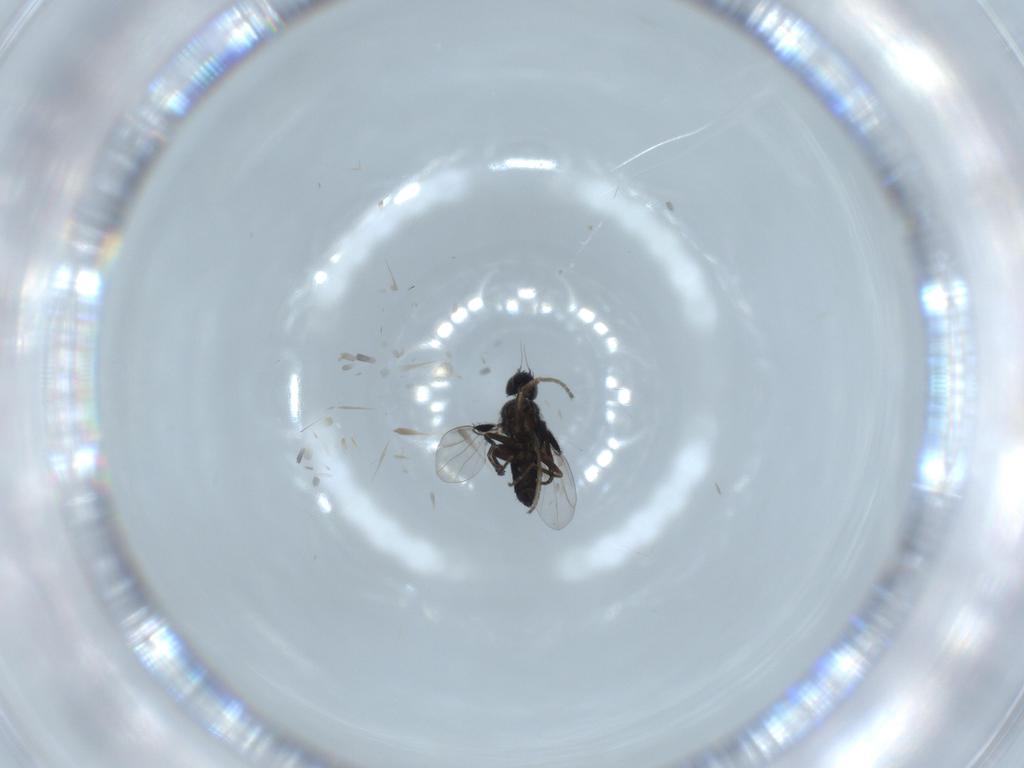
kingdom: Animalia
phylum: Arthropoda
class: Insecta
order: Diptera
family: Phoridae
